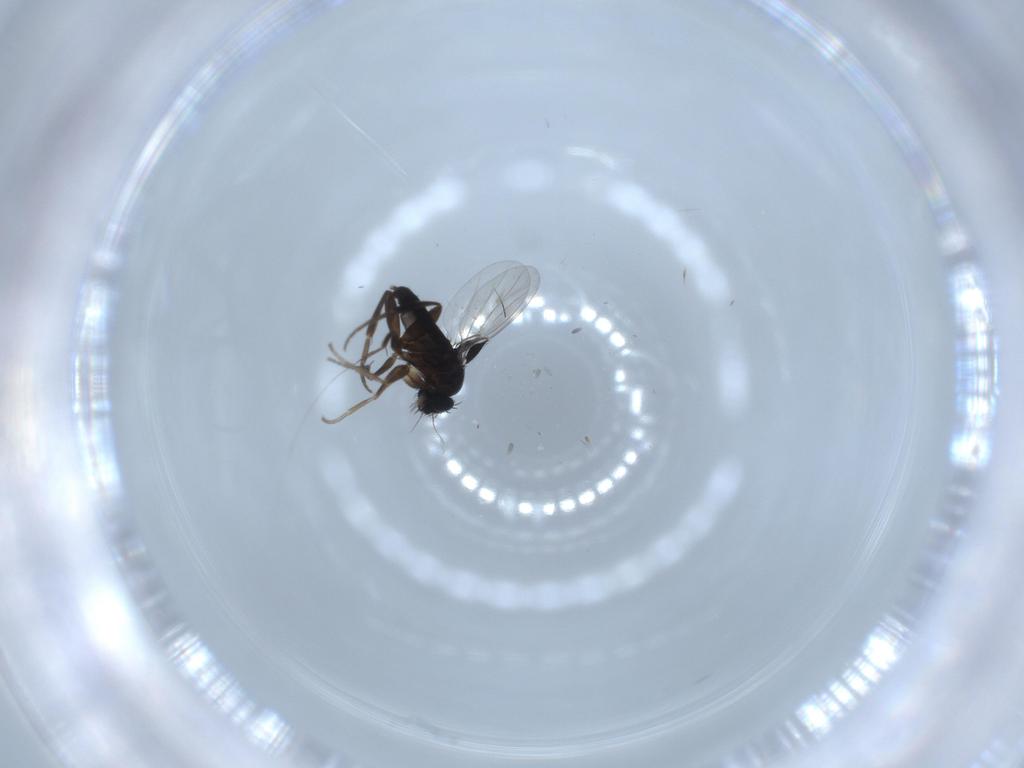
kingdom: Animalia
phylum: Arthropoda
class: Insecta
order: Diptera
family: Phoridae
